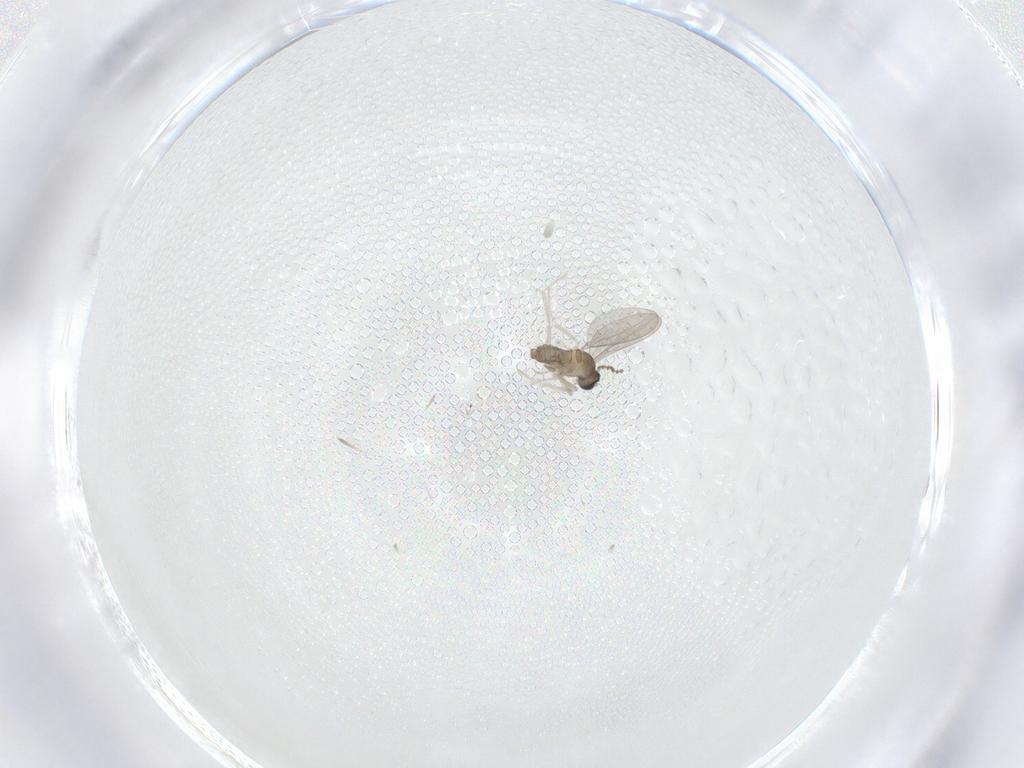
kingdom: Animalia
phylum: Arthropoda
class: Insecta
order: Diptera
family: Cecidomyiidae
